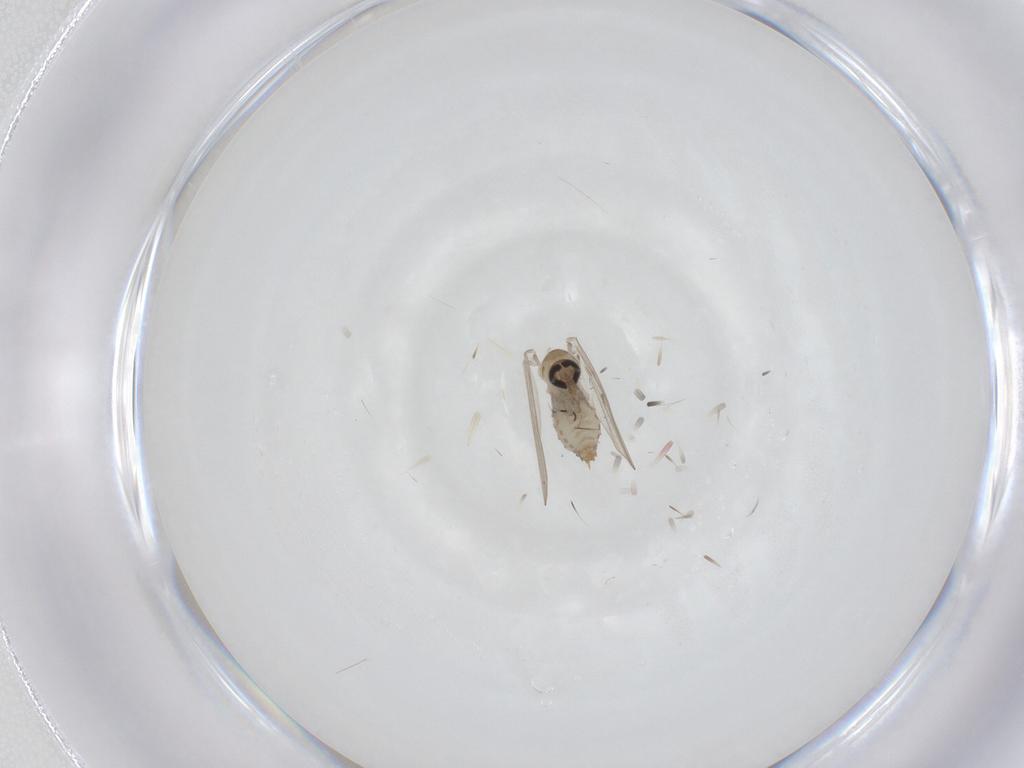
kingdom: Animalia
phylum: Arthropoda
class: Insecta
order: Diptera
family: Psychodidae
